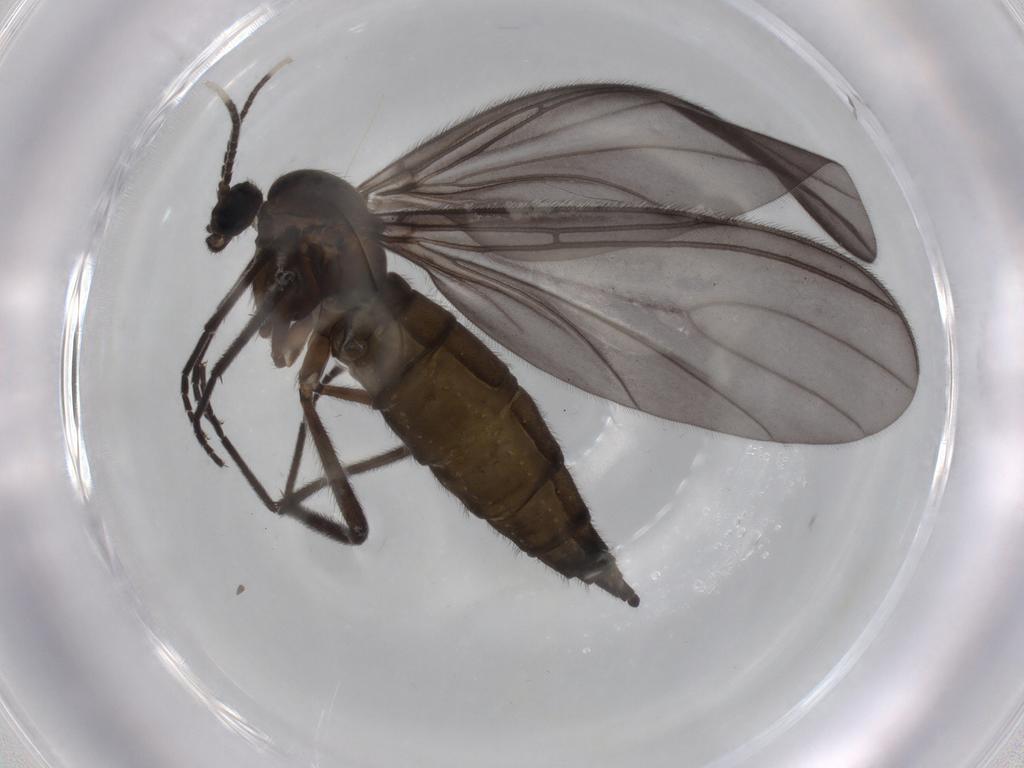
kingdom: Animalia
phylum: Arthropoda
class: Insecta
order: Diptera
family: Sciaridae
